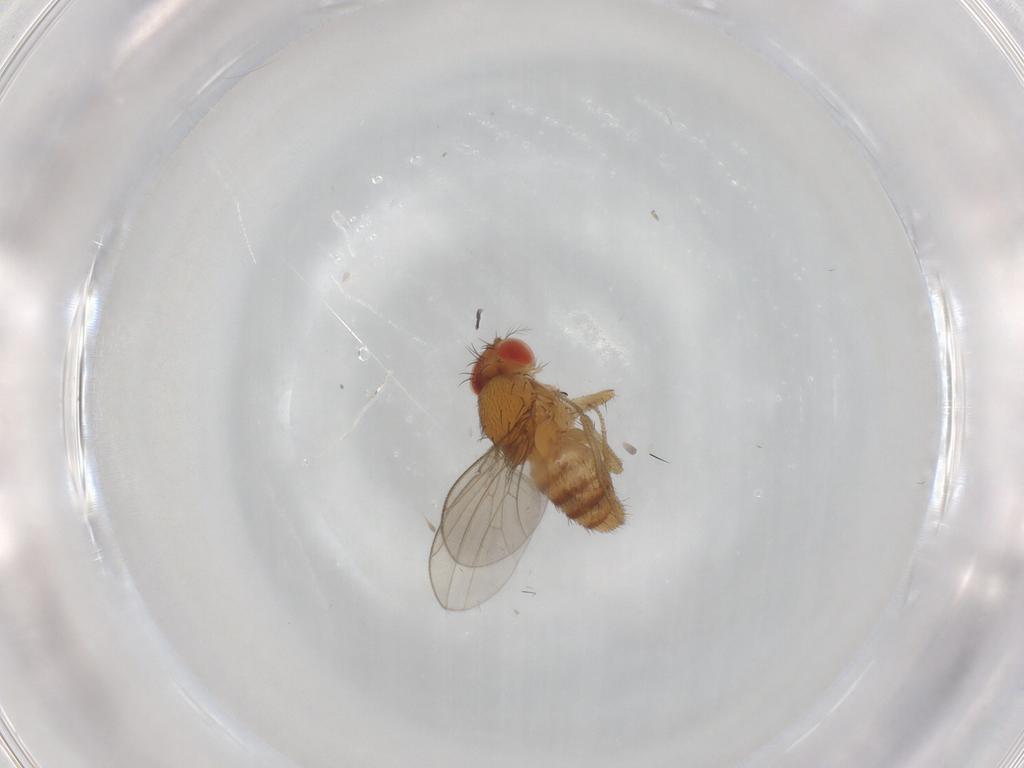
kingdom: Animalia
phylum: Arthropoda
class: Insecta
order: Diptera
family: Drosophilidae
